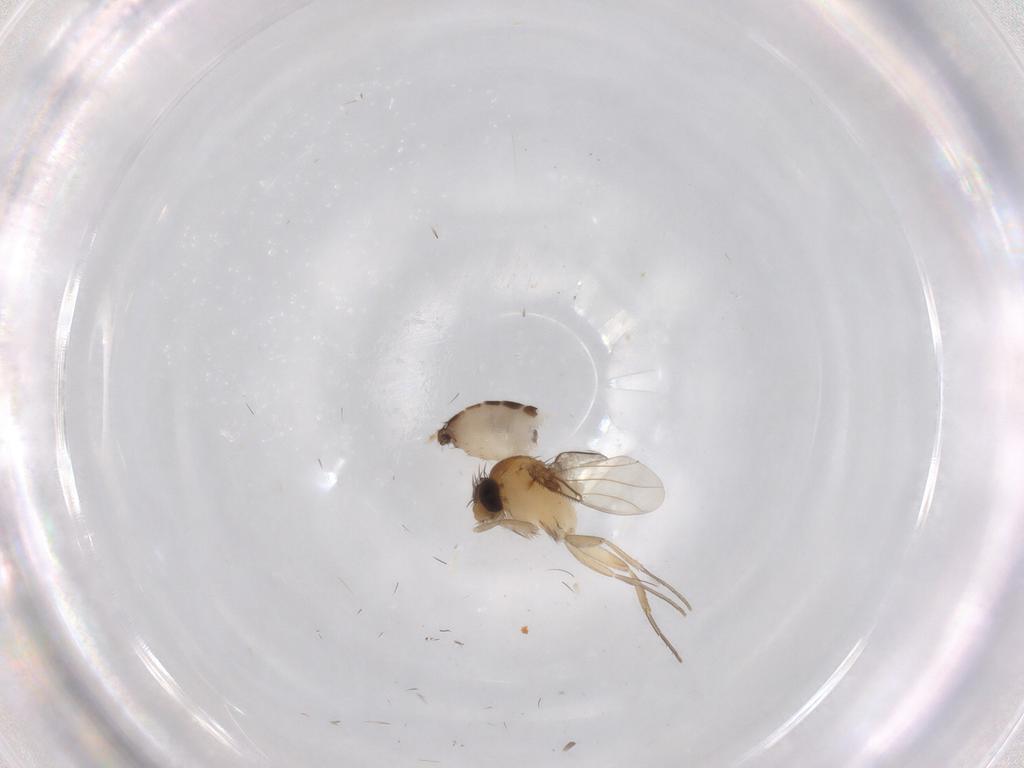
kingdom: Animalia
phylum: Arthropoda
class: Insecta
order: Diptera
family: Phoridae
